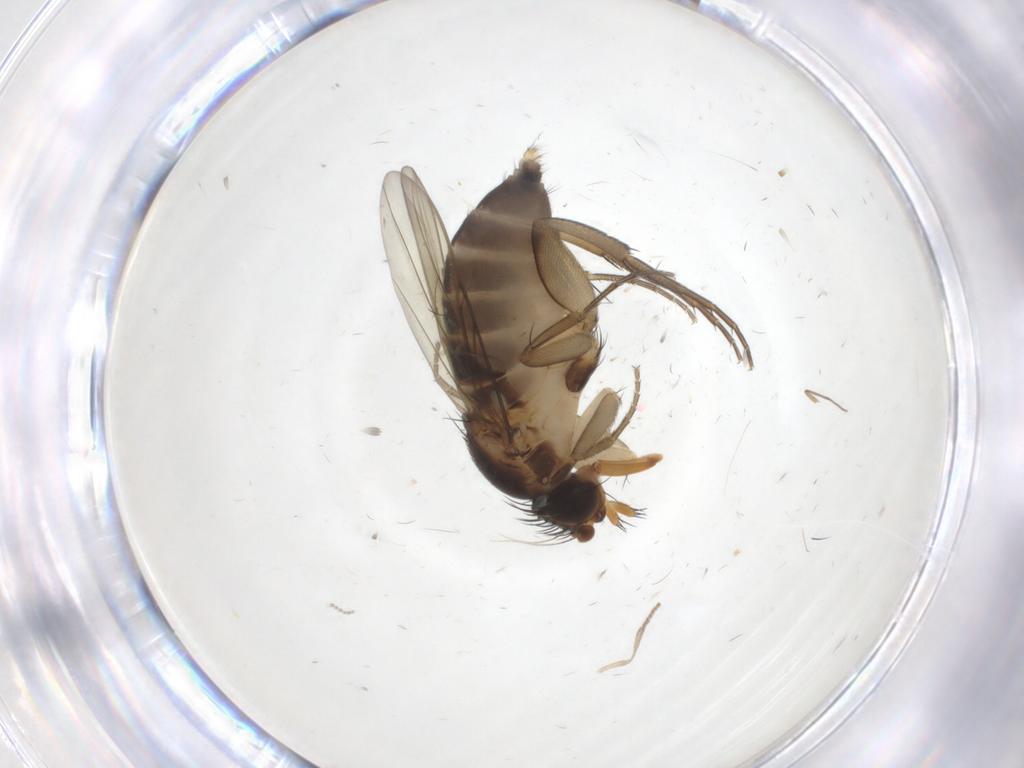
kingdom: Animalia
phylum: Arthropoda
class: Insecta
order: Diptera
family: Phoridae
